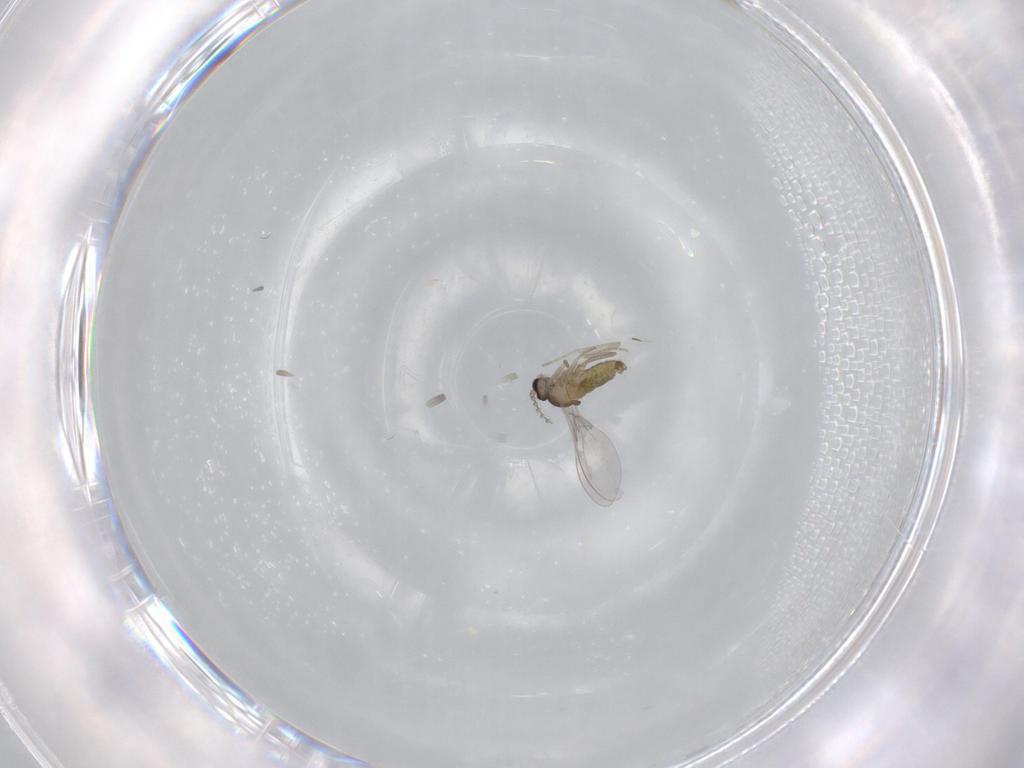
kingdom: Animalia
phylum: Arthropoda
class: Insecta
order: Diptera
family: Cecidomyiidae
